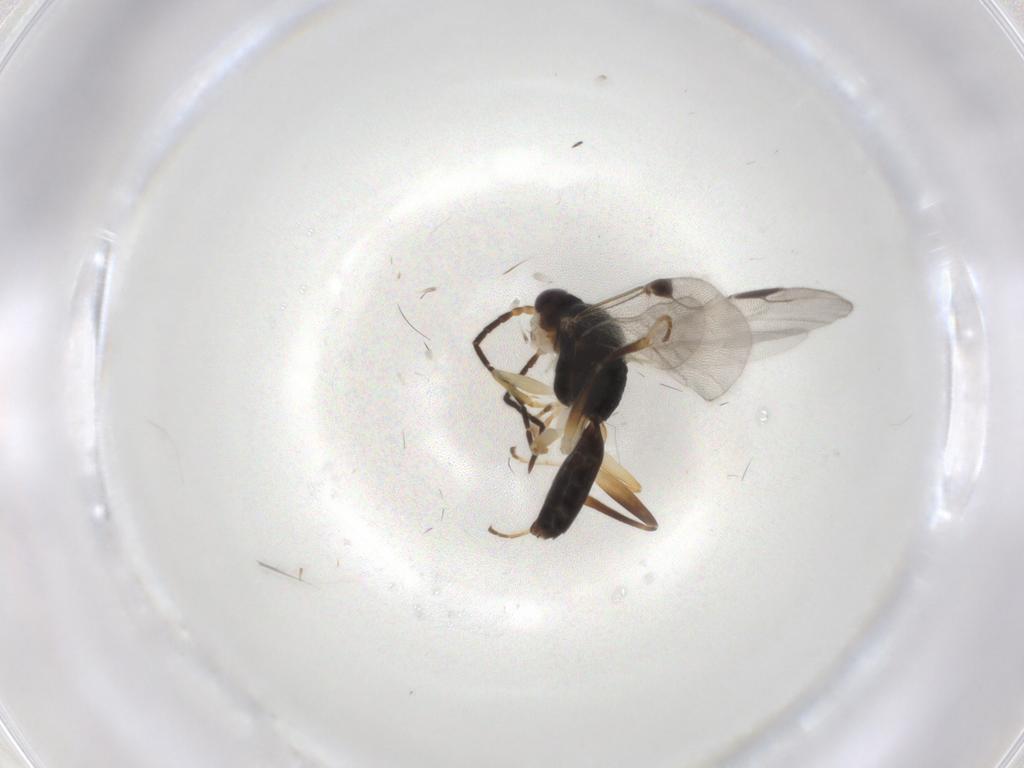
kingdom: Animalia
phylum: Arthropoda
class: Insecta
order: Hymenoptera
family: Dryinidae
